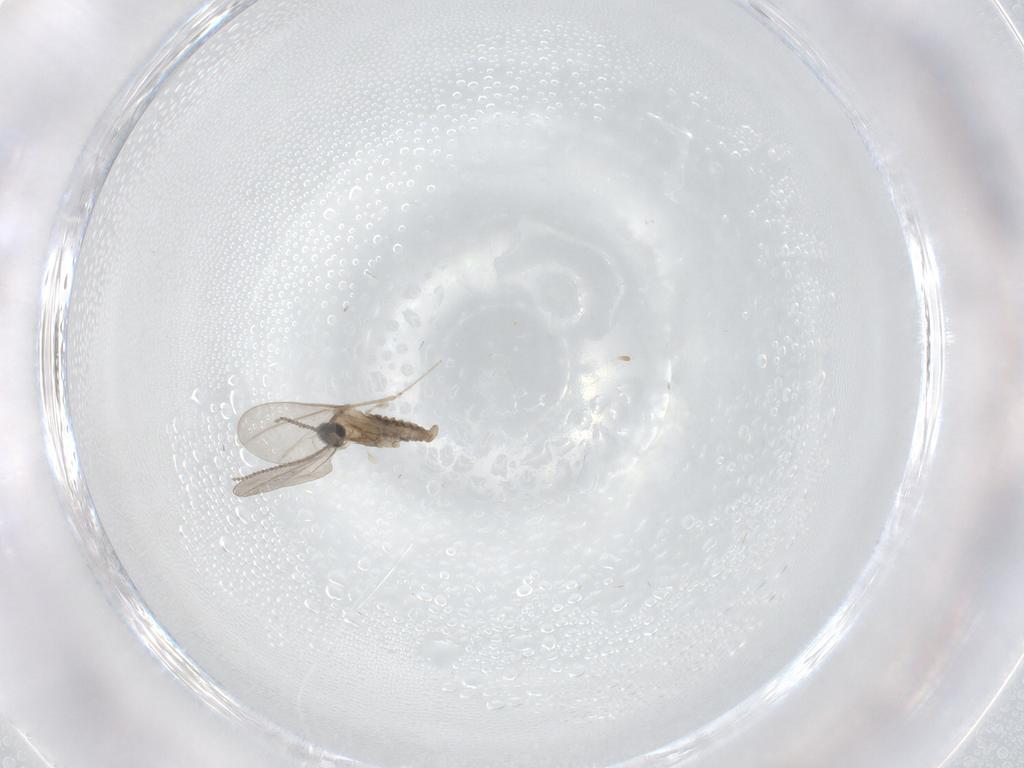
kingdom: Animalia
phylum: Arthropoda
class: Insecta
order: Diptera
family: Cecidomyiidae
